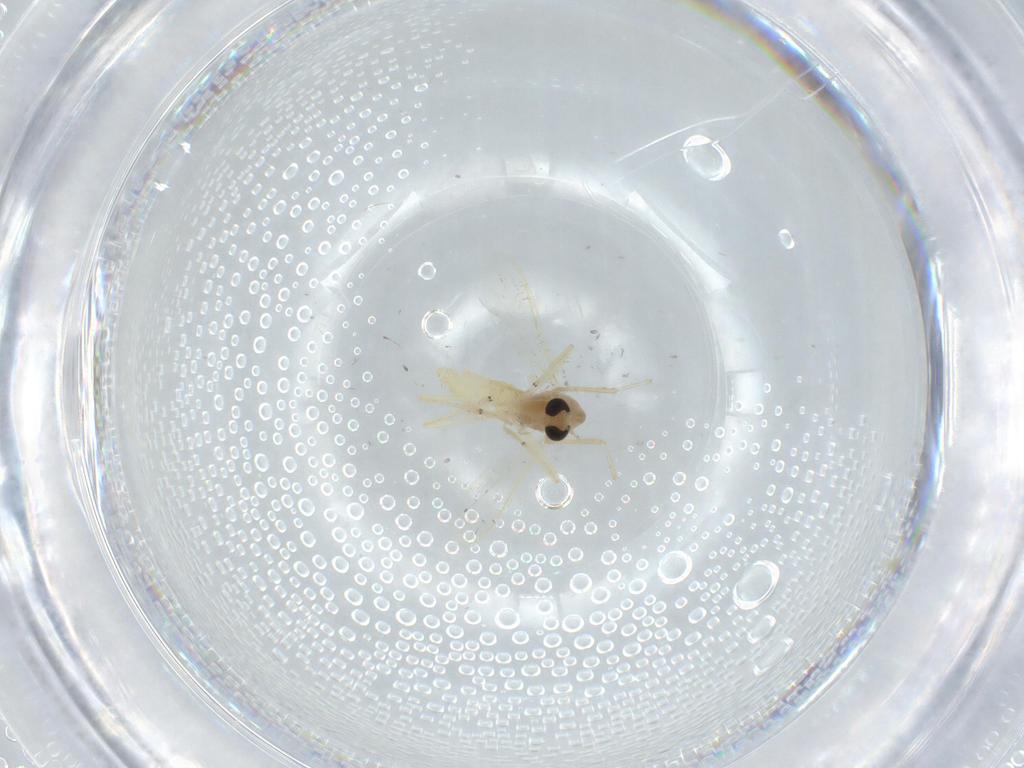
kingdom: Animalia
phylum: Arthropoda
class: Insecta
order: Diptera
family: Chironomidae
